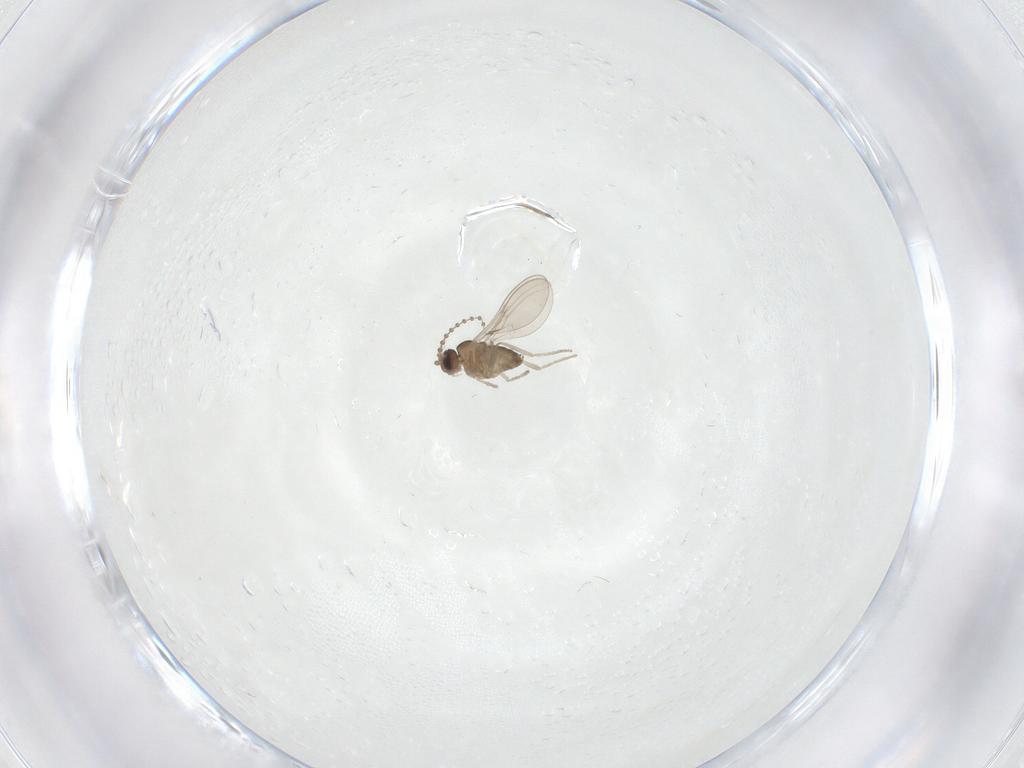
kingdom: Animalia
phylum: Arthropoda
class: Insecta
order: Diptera
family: Cecidomyiidae
